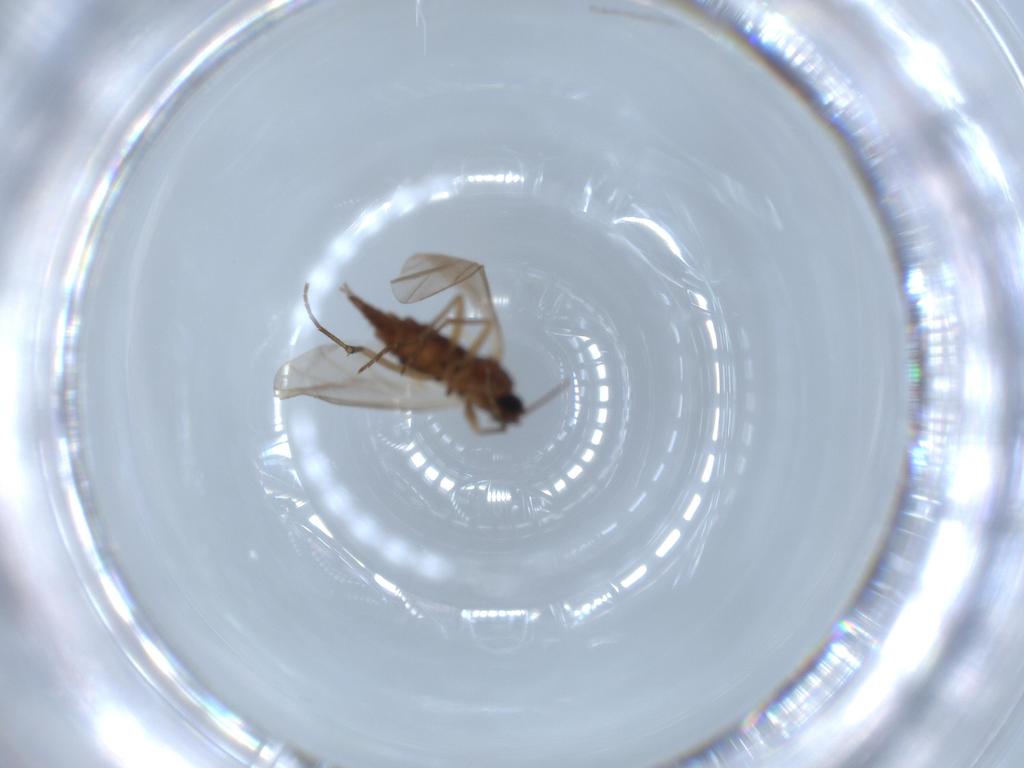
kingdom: Animalia
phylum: Arthropoda
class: Insecta
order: Diptera
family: Sciaridae
